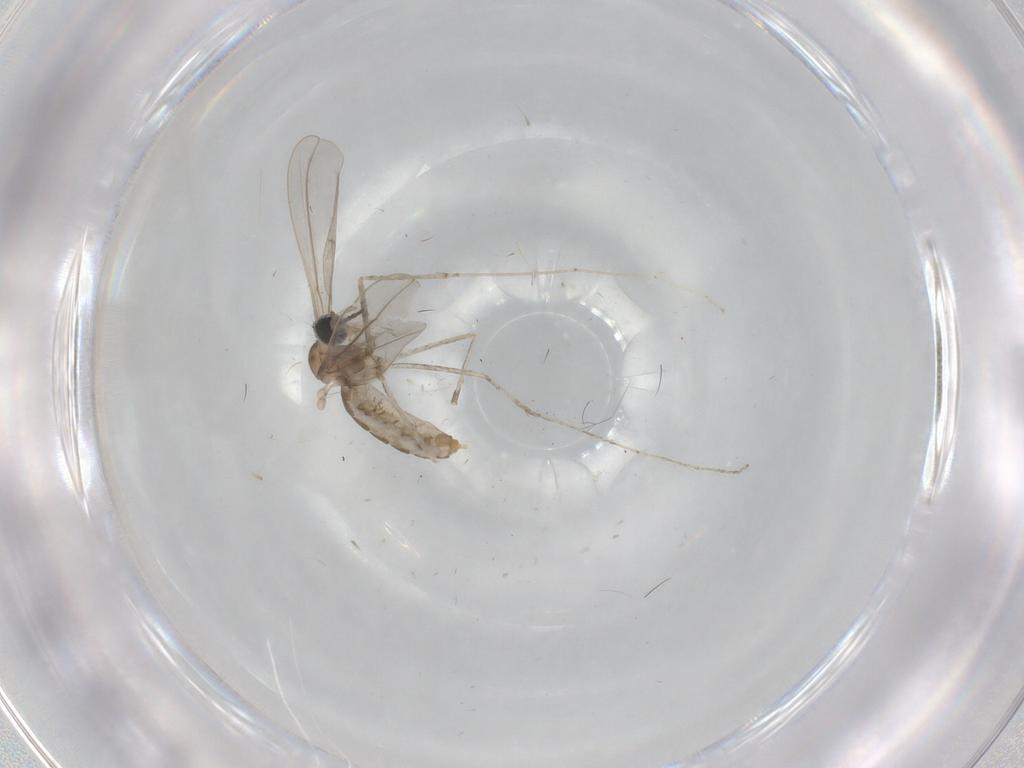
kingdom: Animalia
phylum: Arthropoda
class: Insecta
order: Diptera
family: Cecidomyiidae
